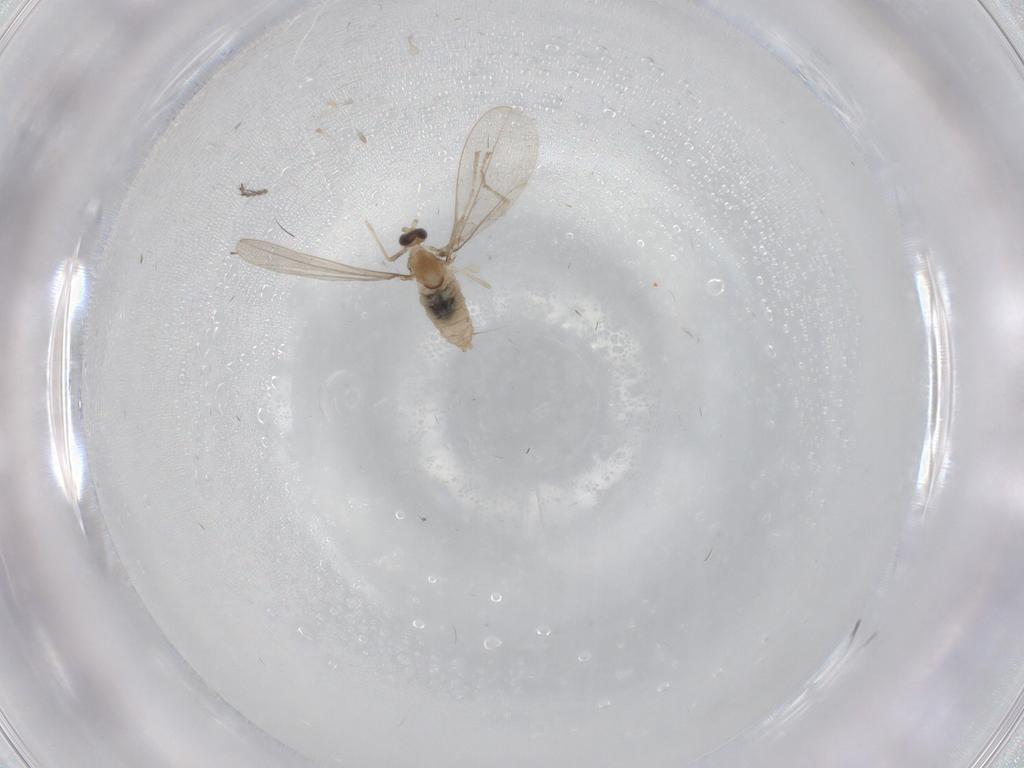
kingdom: Animalia
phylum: Arthropoda
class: Insecta
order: Diptera
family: Cecidomyiidae
